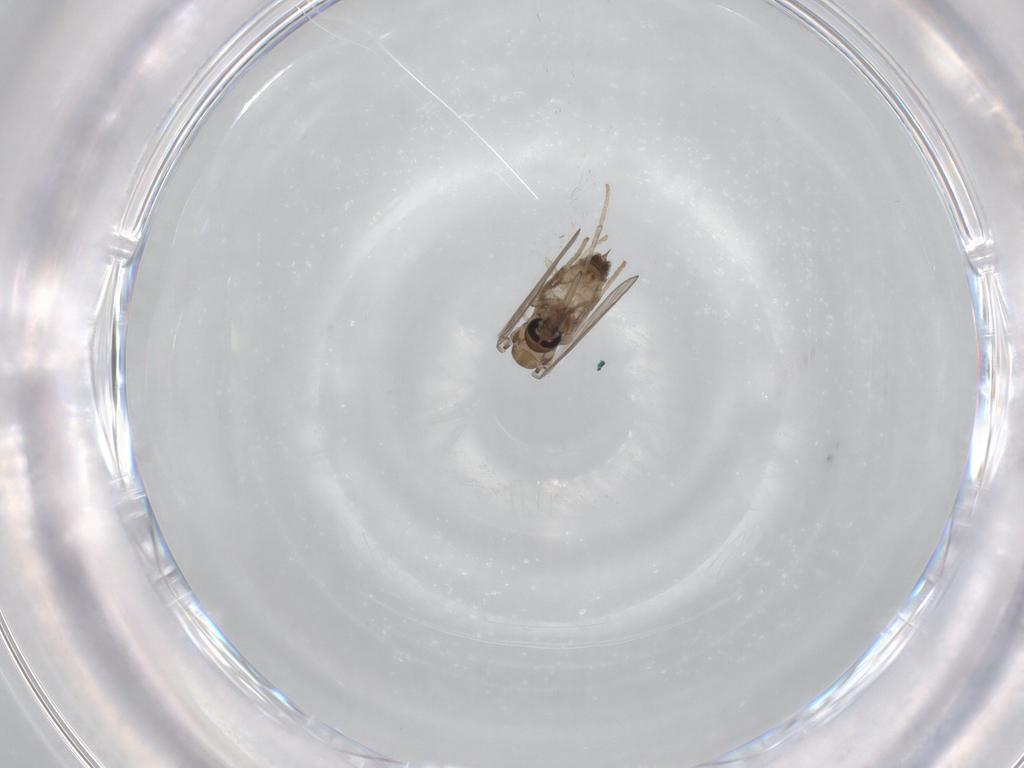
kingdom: Animalia
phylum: Arthropoda
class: Insecta
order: Diptera
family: Psychodidae
